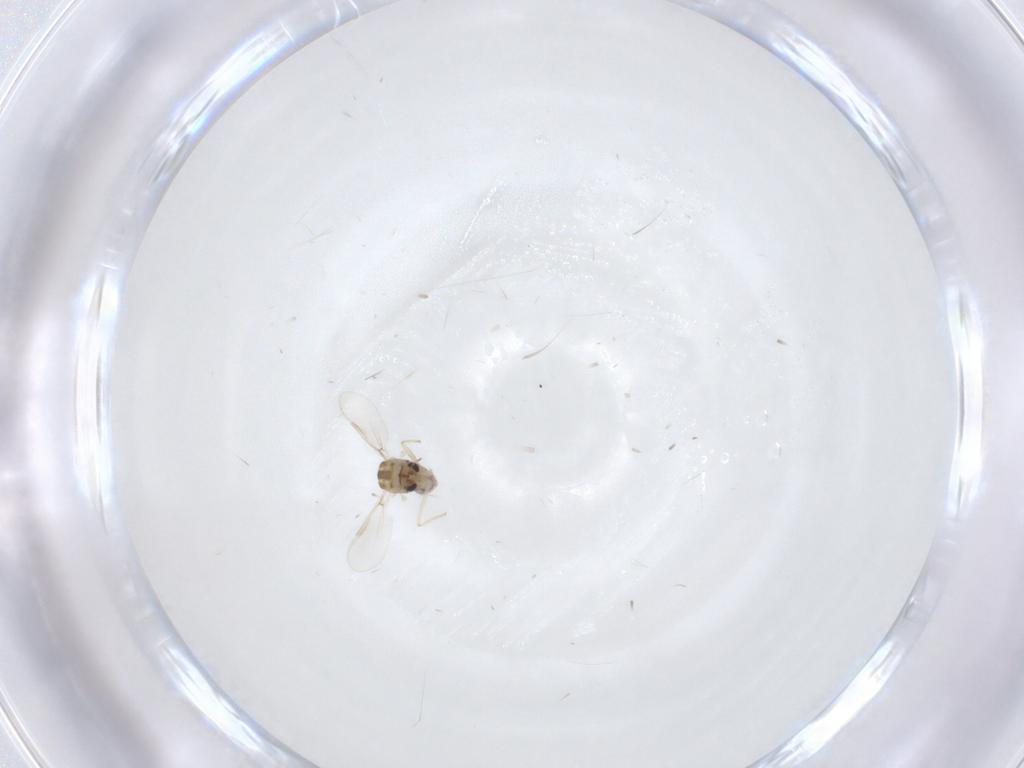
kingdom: Animalia
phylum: Arthropoda
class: Insecta
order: Diptera
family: Chironomidae
